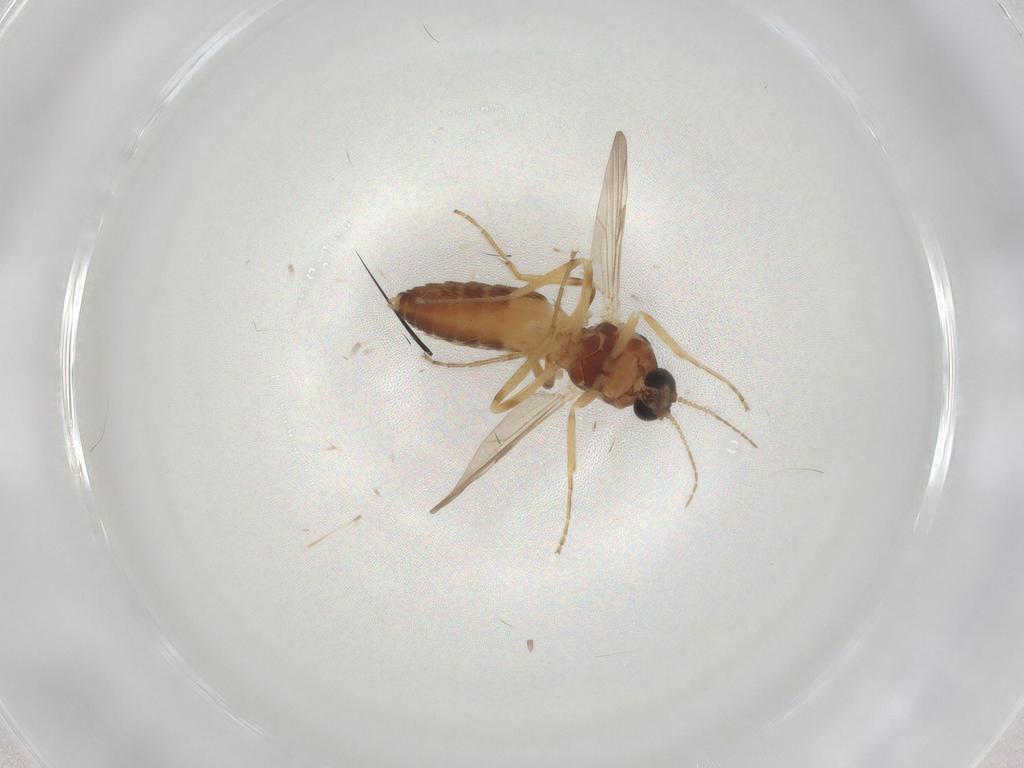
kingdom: Animalia
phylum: Arthropoda
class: Insecta
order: Diptera
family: Ceratopogonidae
